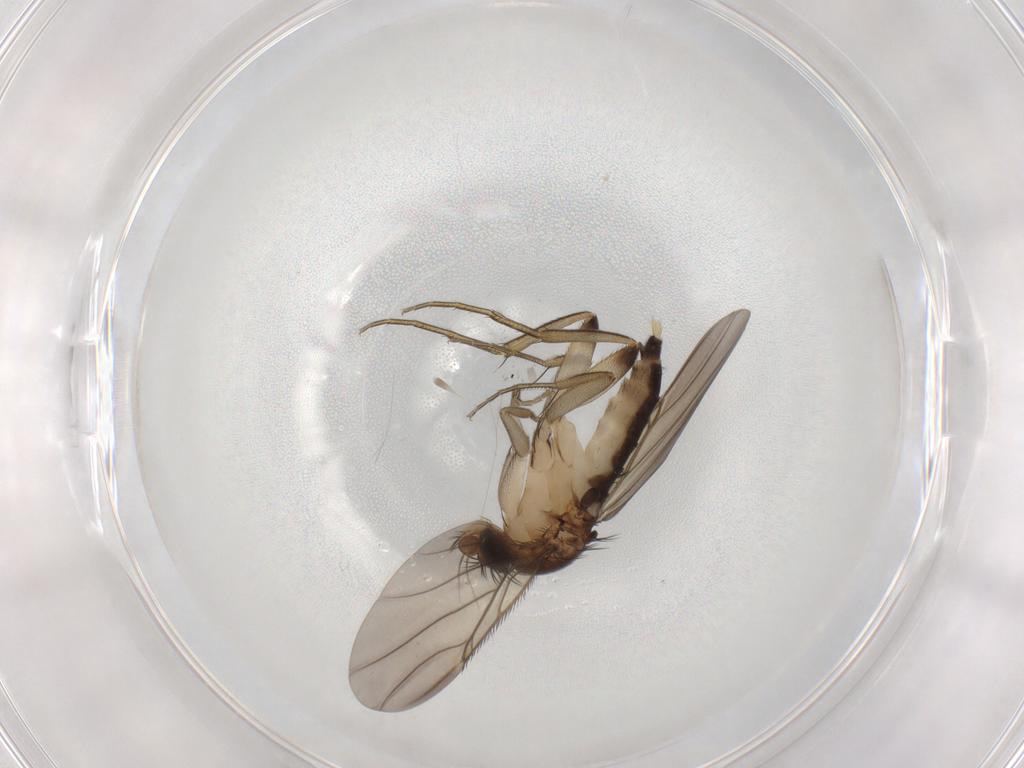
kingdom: Animalia
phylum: Arthropoda
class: Insecta
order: Diptera
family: Phoridae
